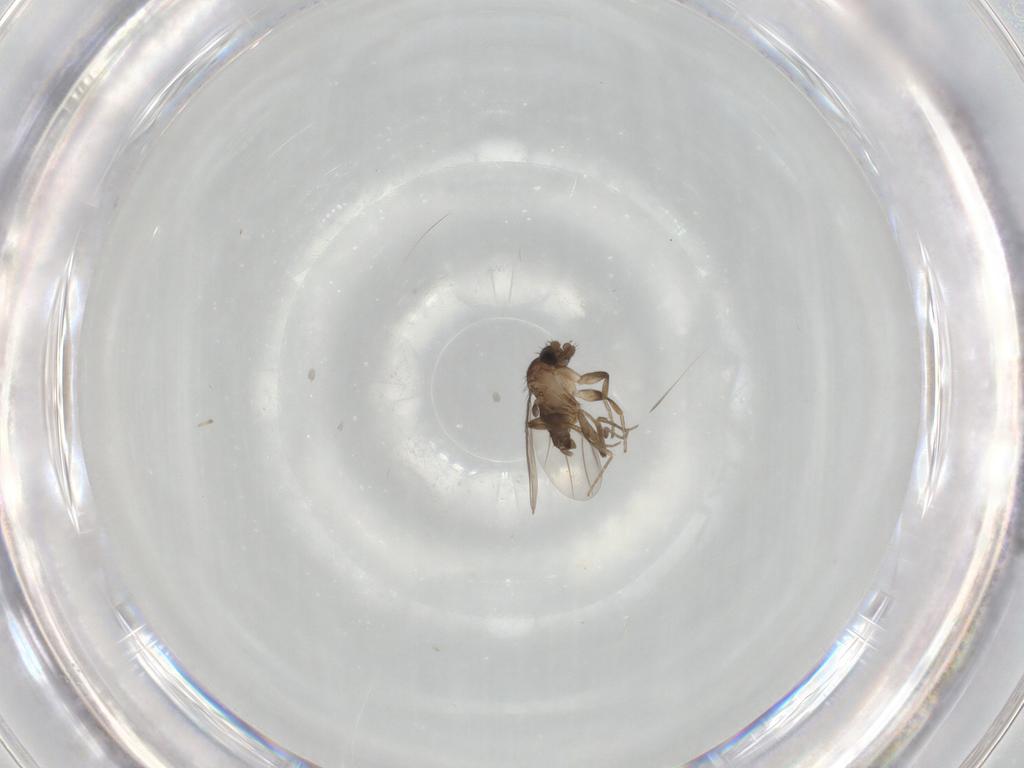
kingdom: Animalia
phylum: Arthropoda
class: Insecta
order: Diptera
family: Phoridae
